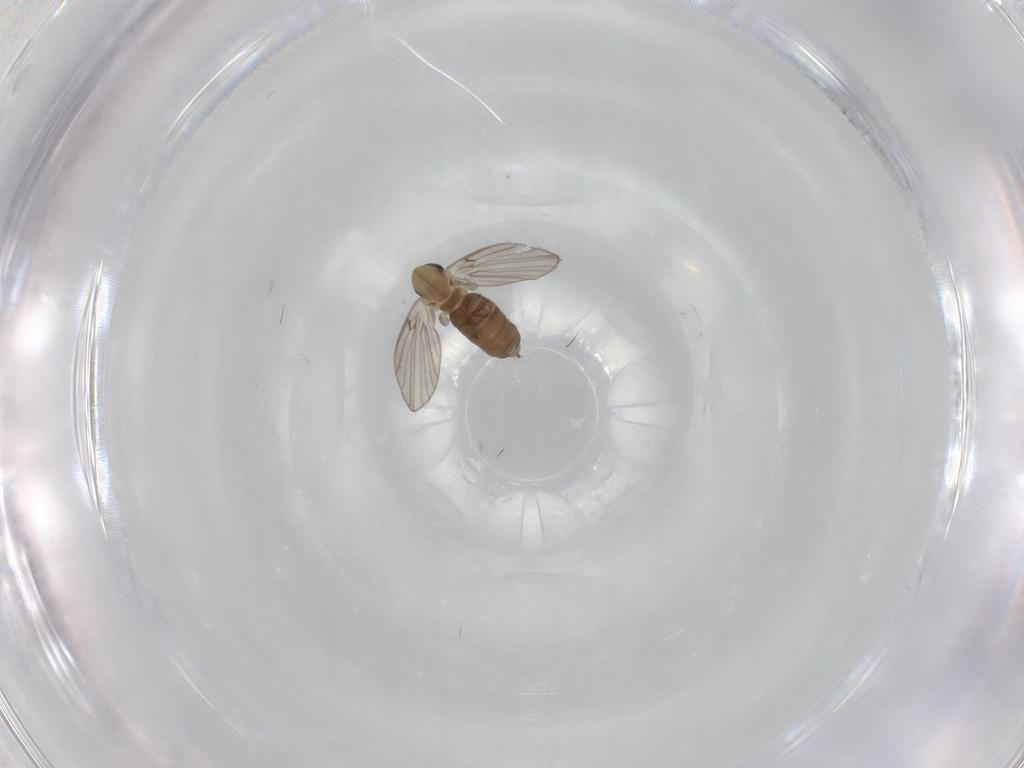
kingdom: Animalia
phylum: Arthropoda
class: Insecta
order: Diptera
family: Psychodidae
